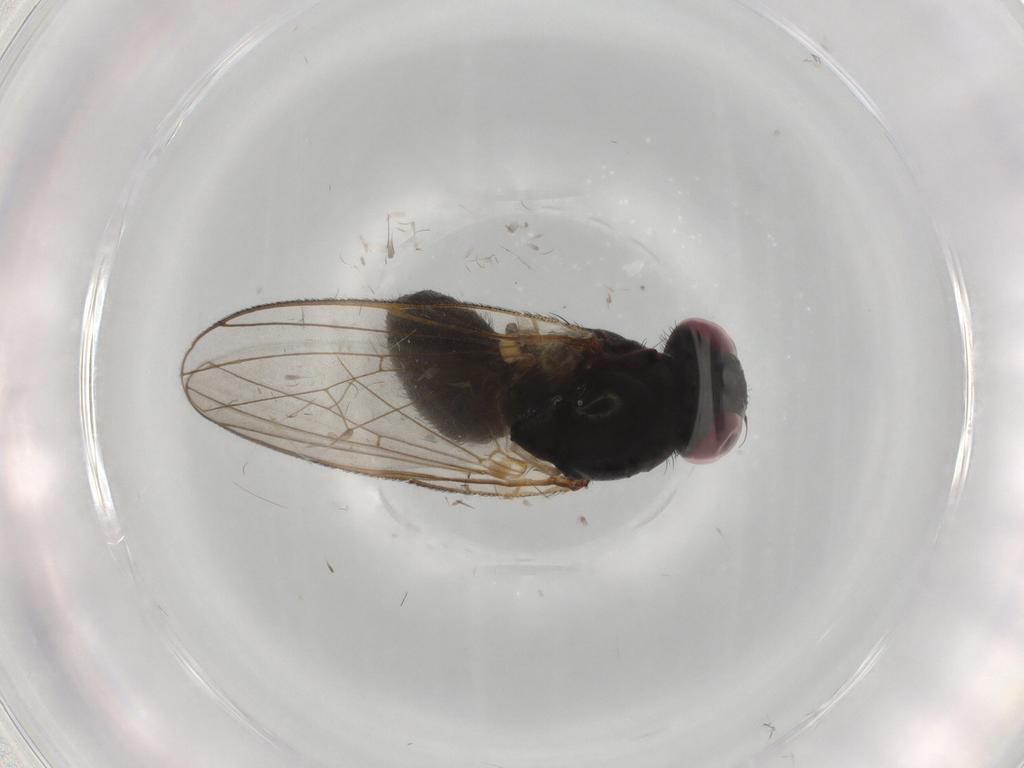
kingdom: Animalia
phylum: Arthropoda
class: Insecta
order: Diptera
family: Fannia
